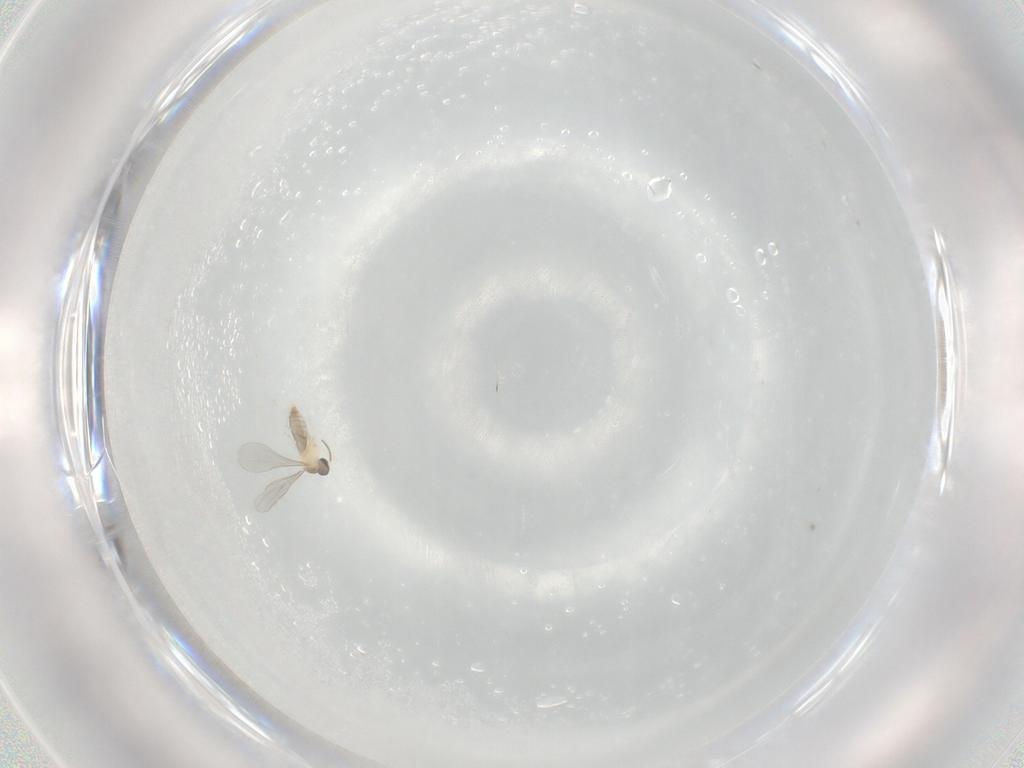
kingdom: Animalia
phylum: Arthropoda
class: Insecta
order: Diptera
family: Cecidomyiidae
